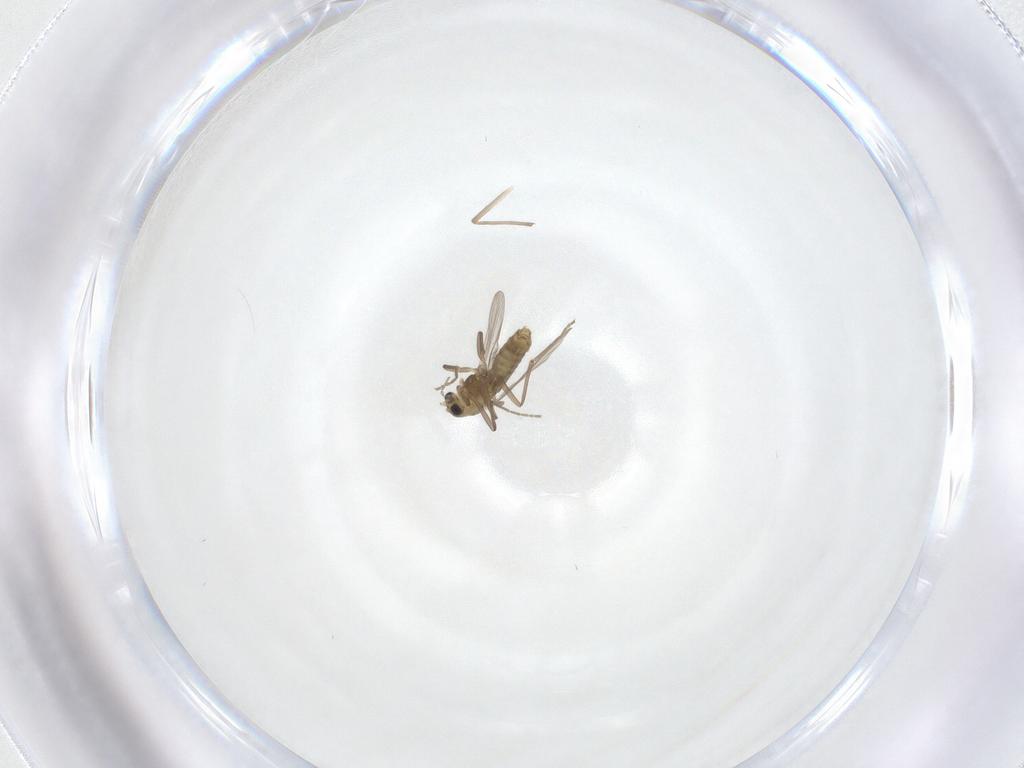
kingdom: Animalia
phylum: Arthropoda
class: Insecta
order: Diptera
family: Chironomidae
